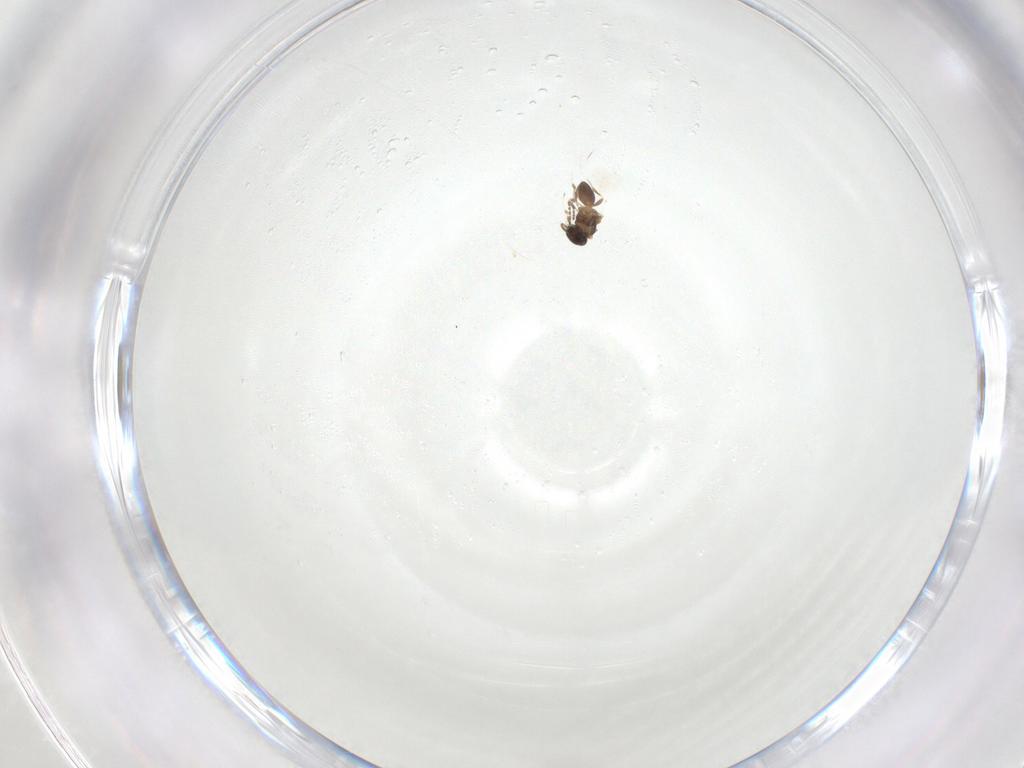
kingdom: Animalia
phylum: Arthropoda
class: Insecta
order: Hymenoptera
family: Platygastridae
